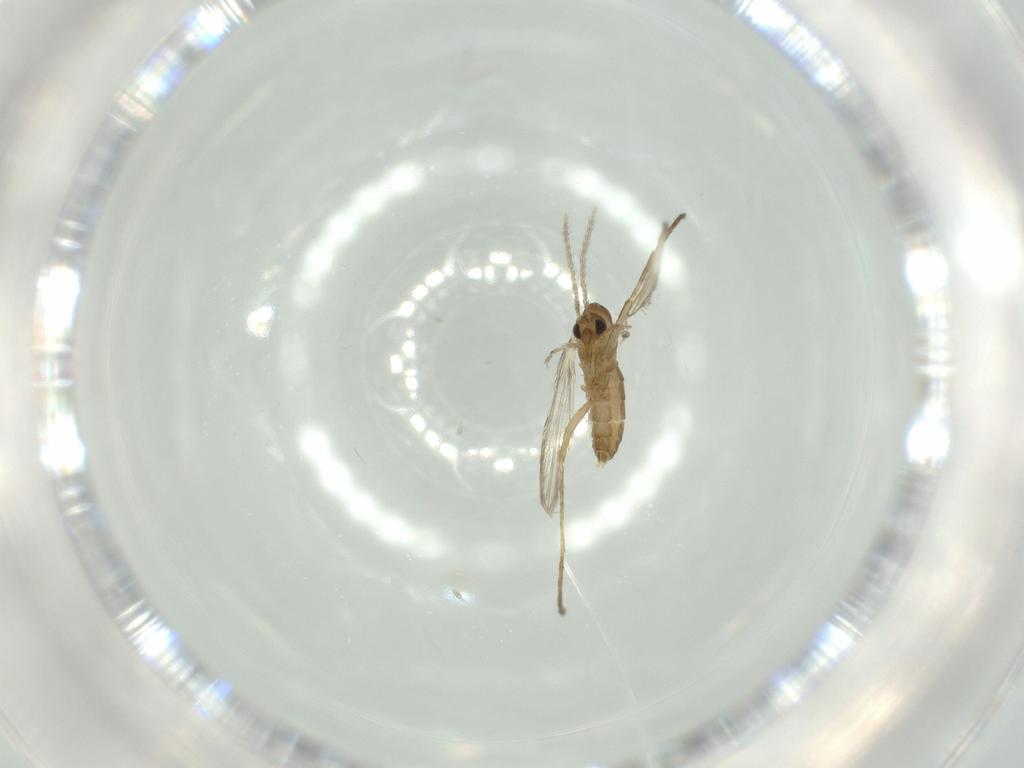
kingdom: Animalia
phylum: Arthropoda
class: Insecta
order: Diptera
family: Psychodidae
